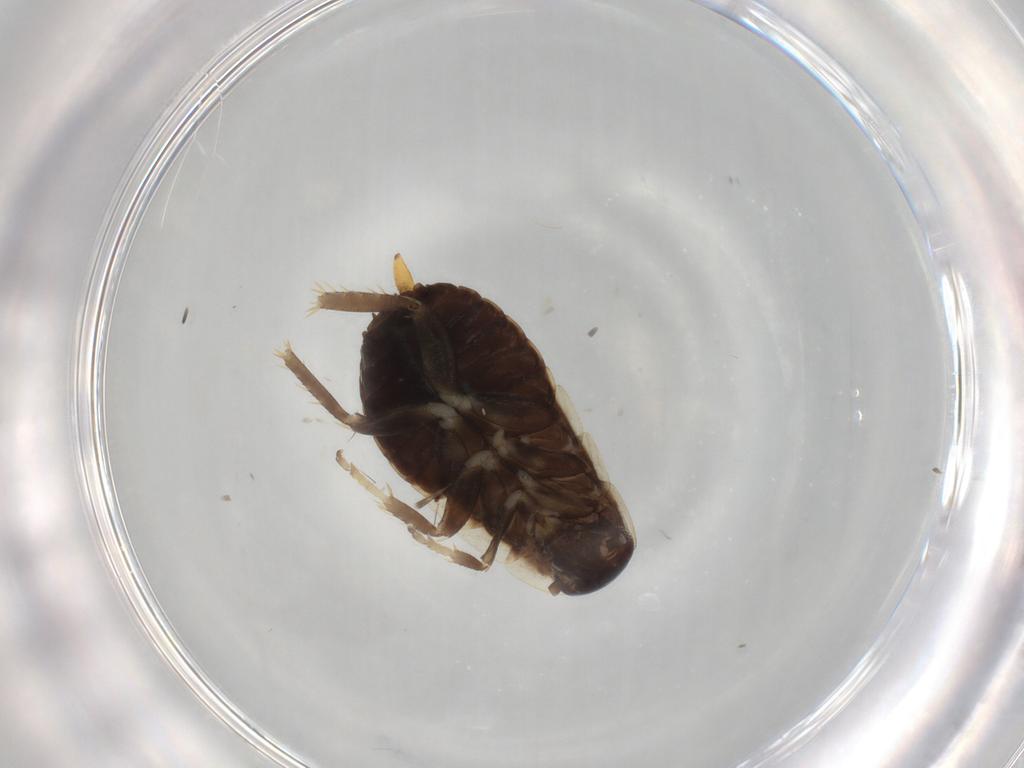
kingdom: Animalia
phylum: Arthropoda
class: Insecta
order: Blattodea
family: Ectobiidae
